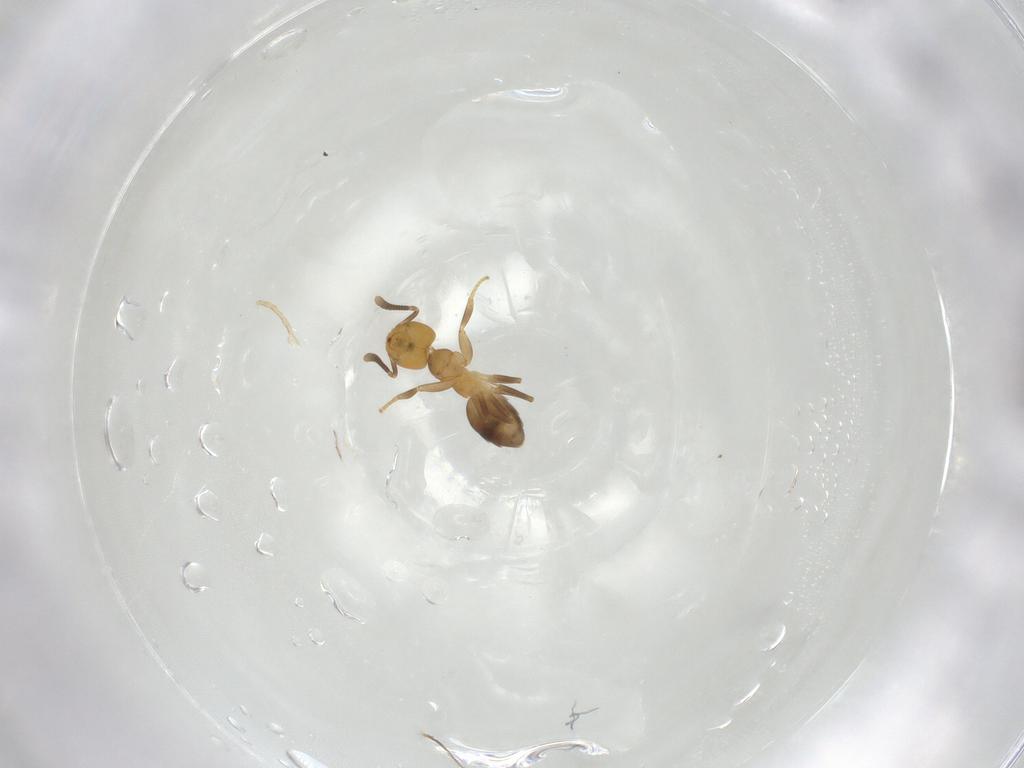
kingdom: Animalia
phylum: Arthropoda
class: Insecta
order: Hymenoptera
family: Formicidae
